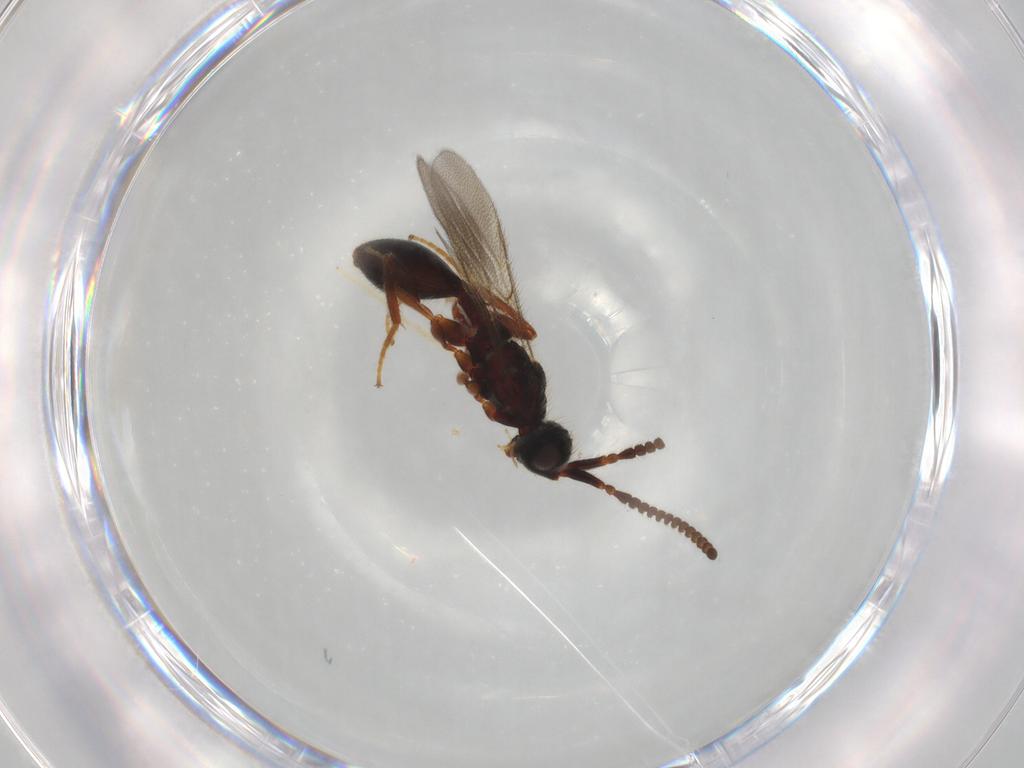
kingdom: Animalia
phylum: Arthropoda
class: Insecta
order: Hymenoptera
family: Diapriidae
